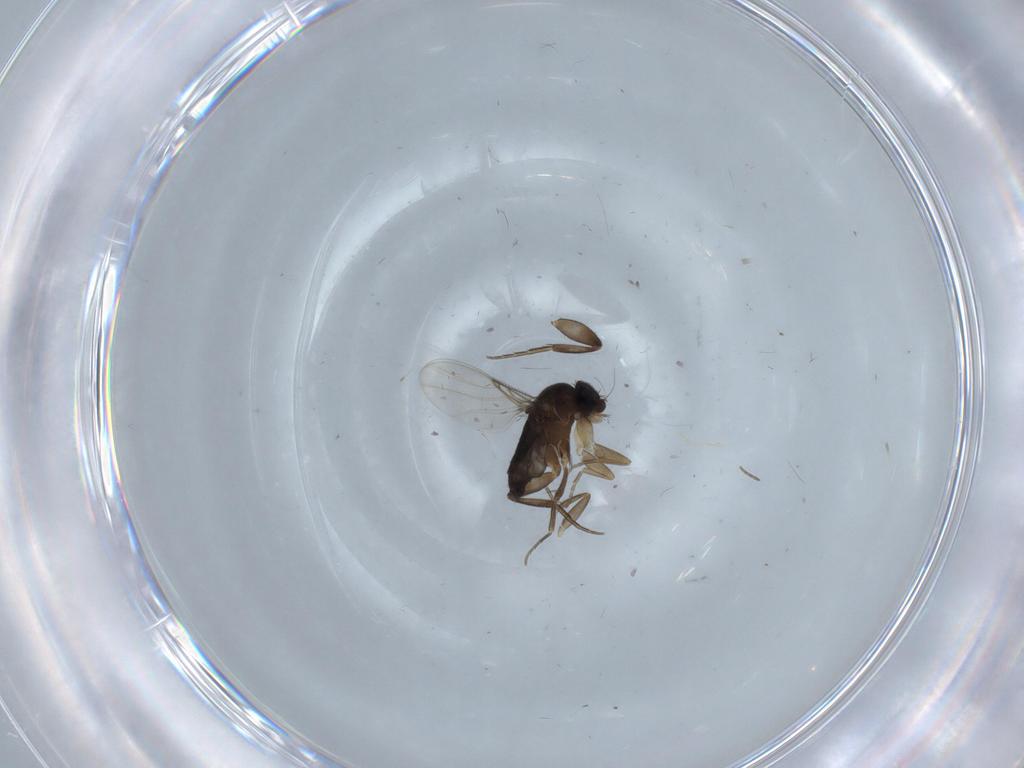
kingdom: Animalia
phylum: Arthropoda
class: Insecta
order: Diptera
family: Phoridae
